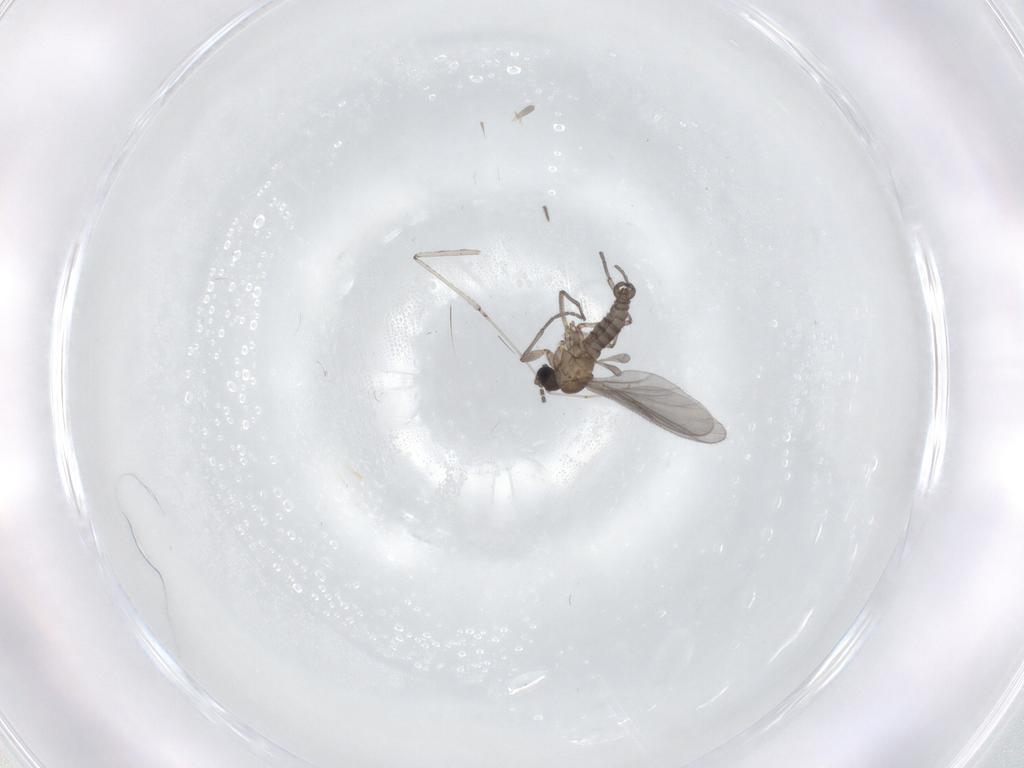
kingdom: Animalia
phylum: Arthropoda
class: Insecta
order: Diptera
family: Sciaridae
